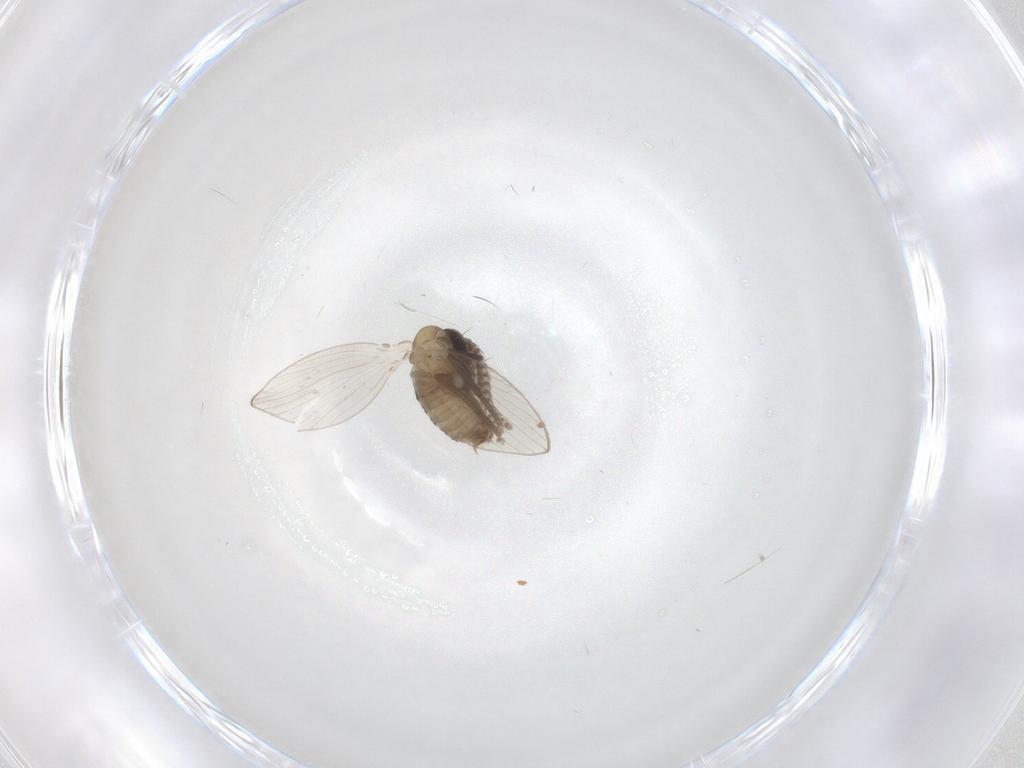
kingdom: Animalia
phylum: Arthropoda
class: Insecta
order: Diptera
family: Psychodidae
